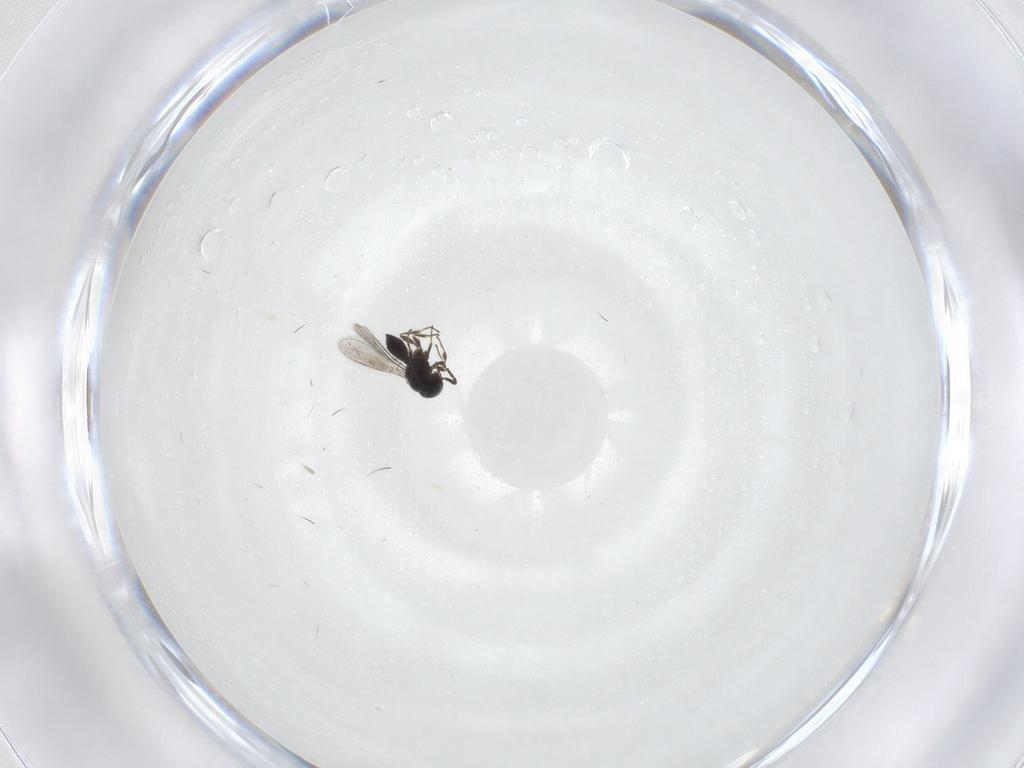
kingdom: Animalia
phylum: Arthropoda
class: Insecta
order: Hymenoptera
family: Scelionidae
